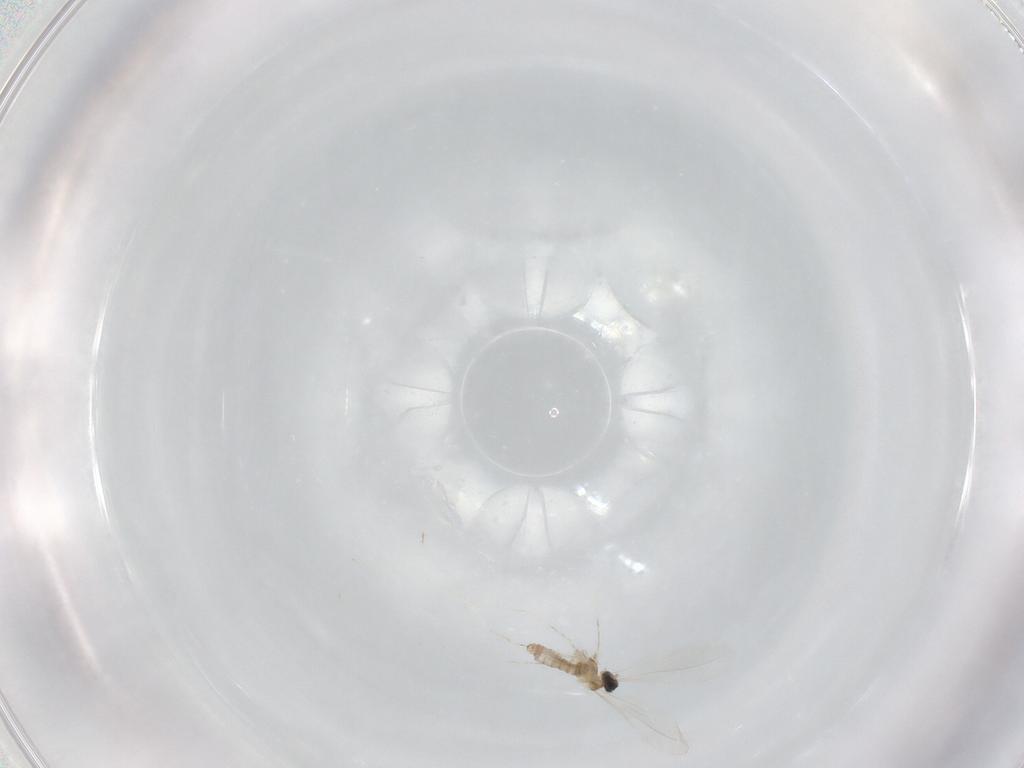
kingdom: Animalia
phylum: Arthropoda
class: Insecta
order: Diptera
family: Cecidomyiidae
